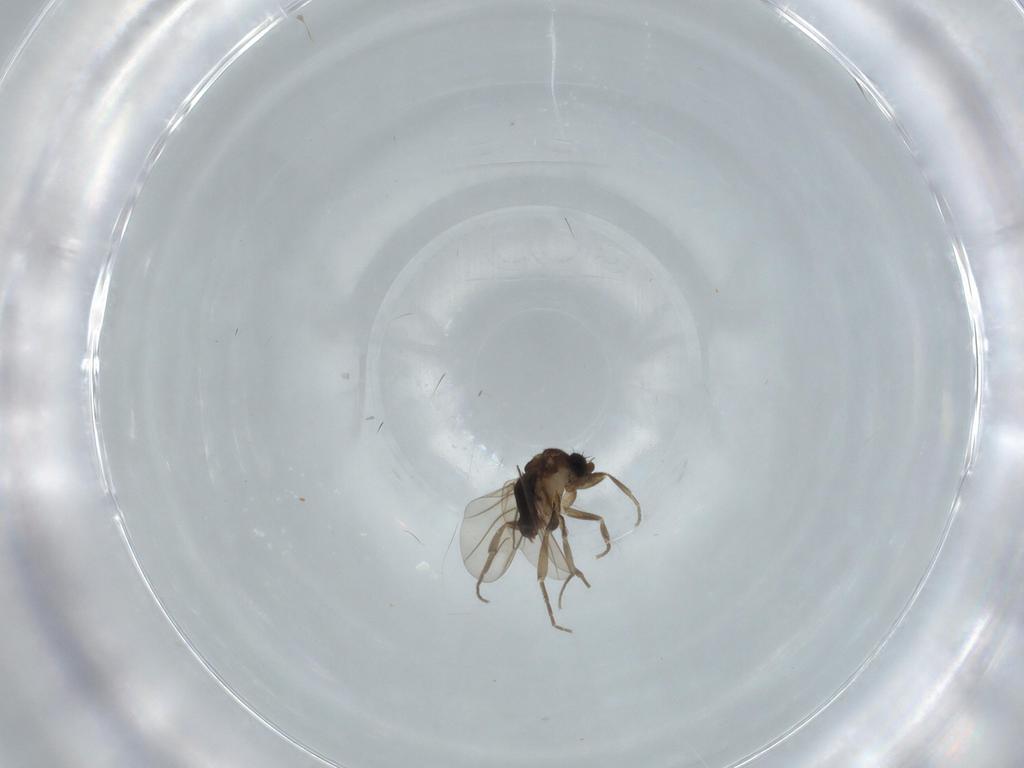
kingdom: Animalia
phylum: Arthropoda
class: Insecta
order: Diptera
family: Phoridae
